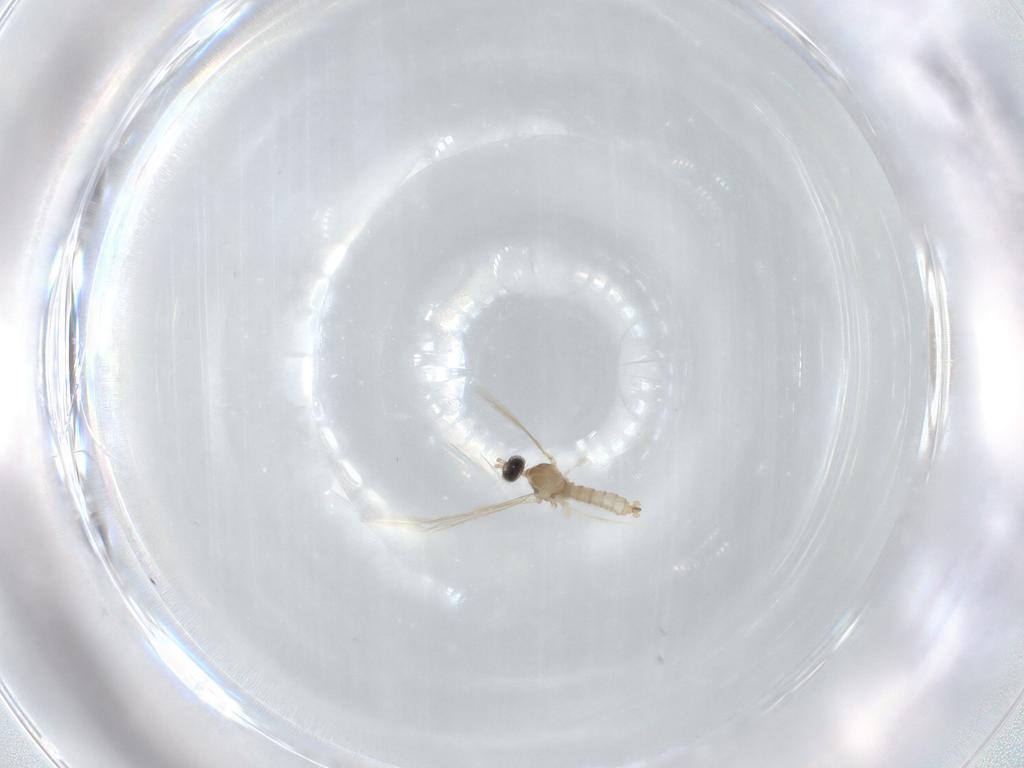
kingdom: Animalia
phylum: Arthropoda
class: Insecta
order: Diptera
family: Cecidomyiidae
